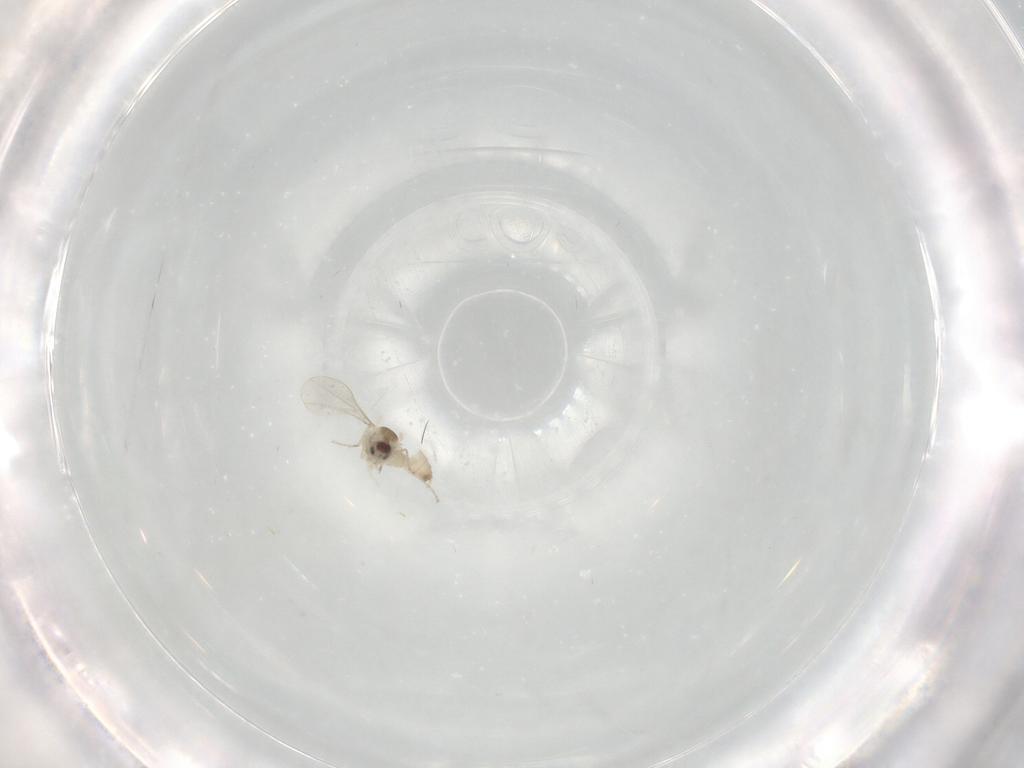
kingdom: Animalia
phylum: Arthropoda
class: Insecta
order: Diptera
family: Cecidomyiidae
